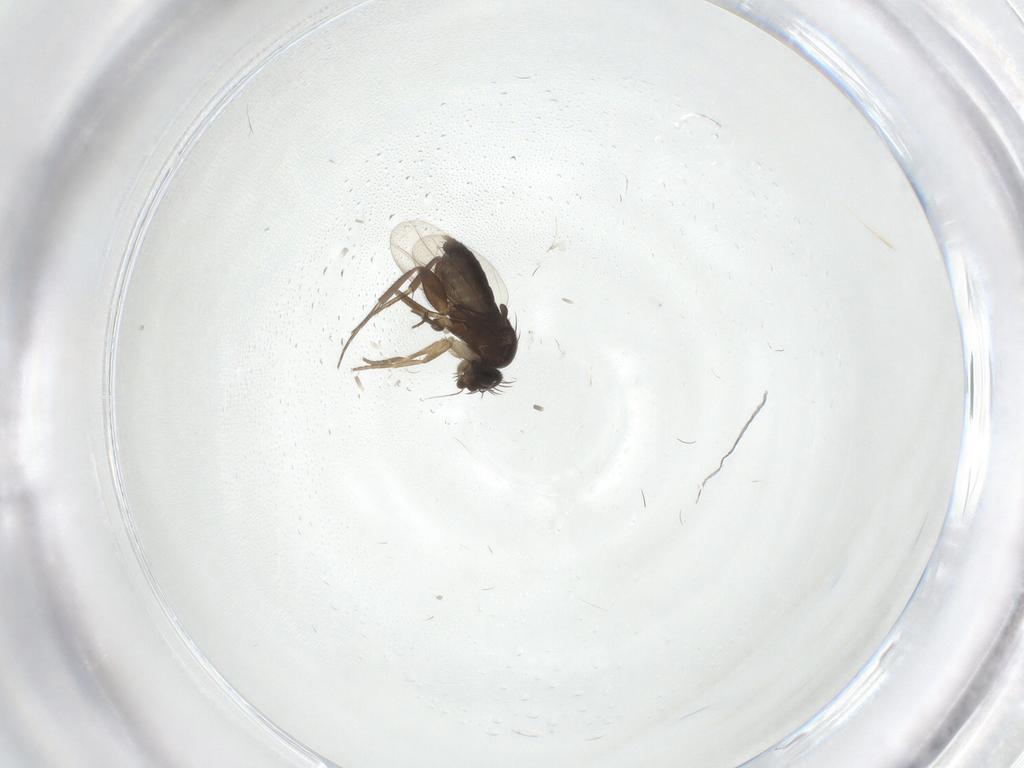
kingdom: Animalia
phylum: Arthropoda
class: Insecta
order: Diptera
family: Phoridae
